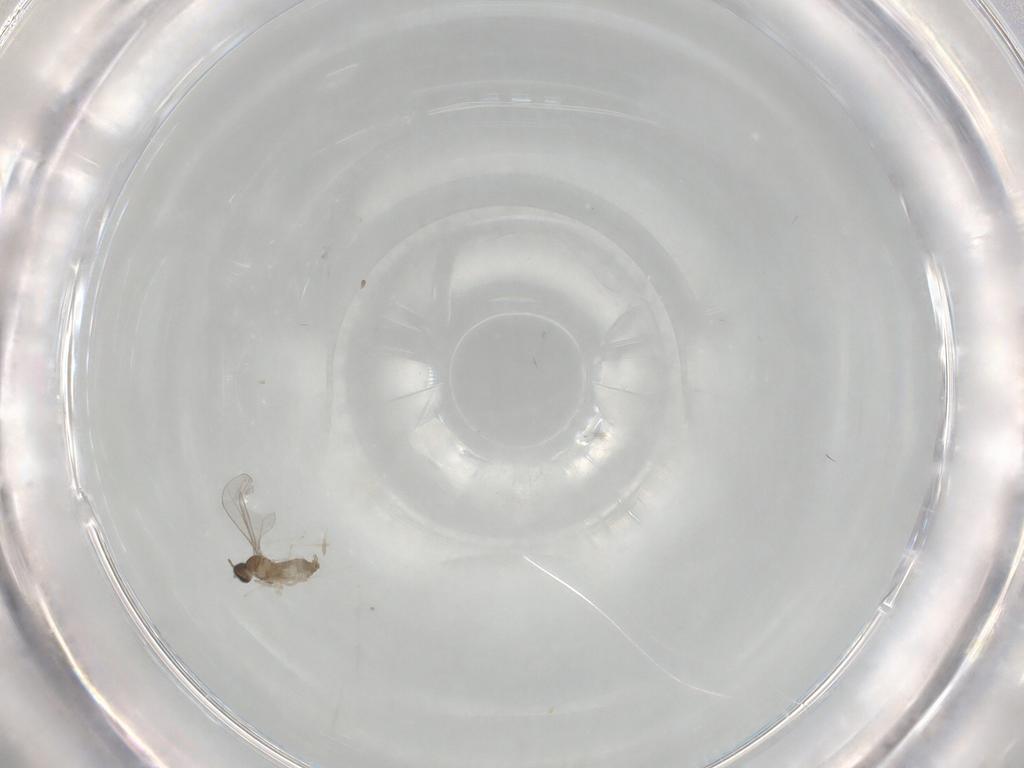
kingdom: Animalia
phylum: Arthropoda
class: Insecta
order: Diptera
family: Cecidomyiidae
